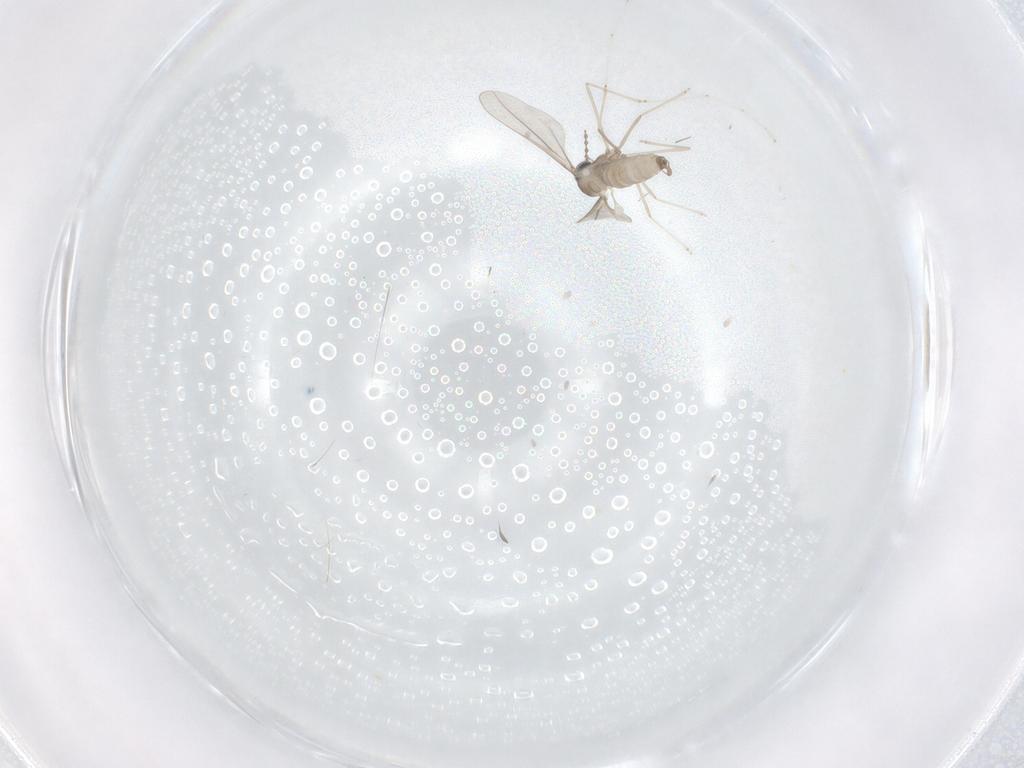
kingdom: Animalia
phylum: Arthropoda
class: Insecta
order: Diptera
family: Cecidomyiidae
